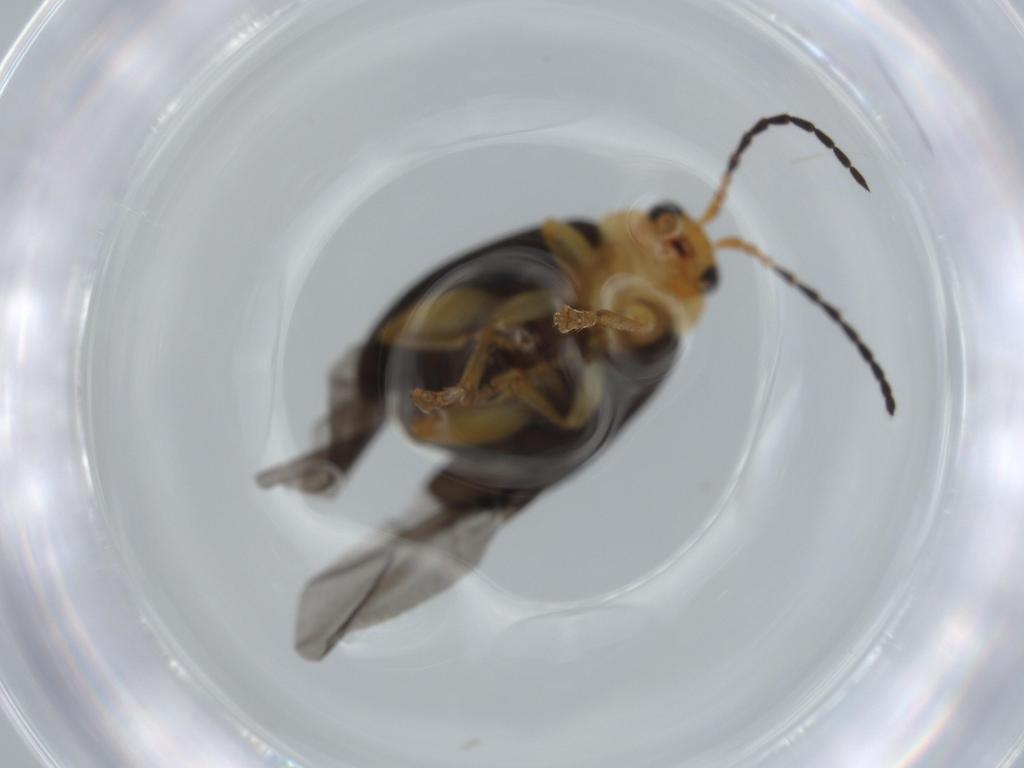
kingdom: Animalia
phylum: Arthropoda
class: Insecta
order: Coleoptera
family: Chrysomelidae
